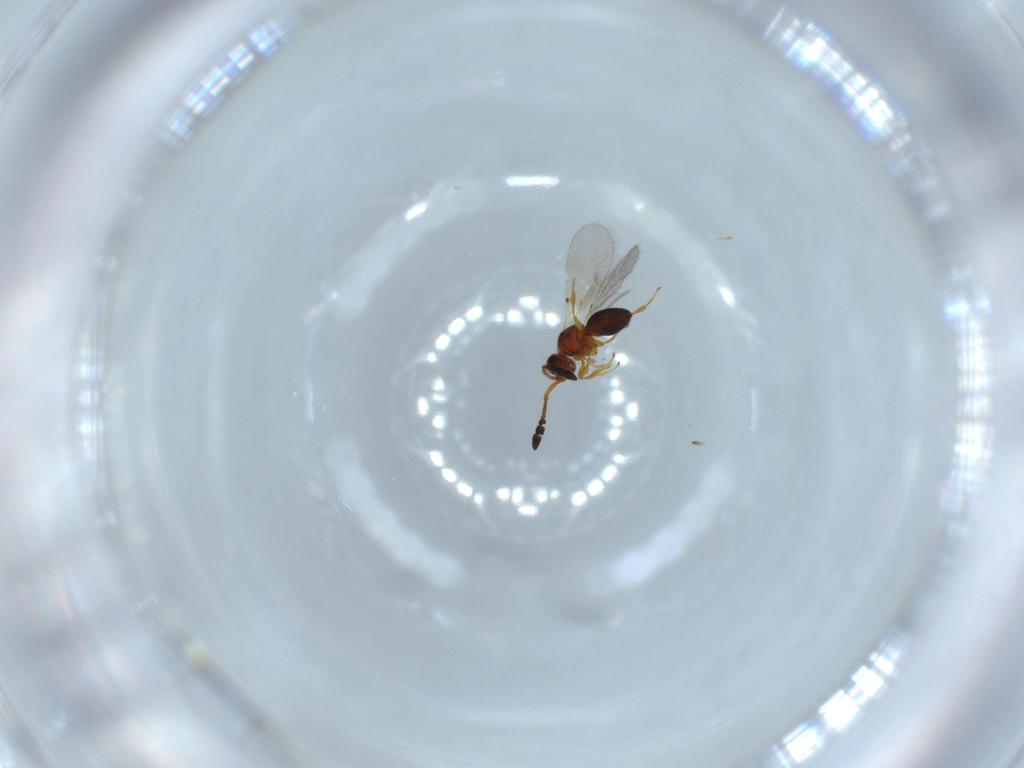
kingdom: Animalia
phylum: Arthropoda
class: Insecta
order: Hymenoptera
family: Diapriidae
